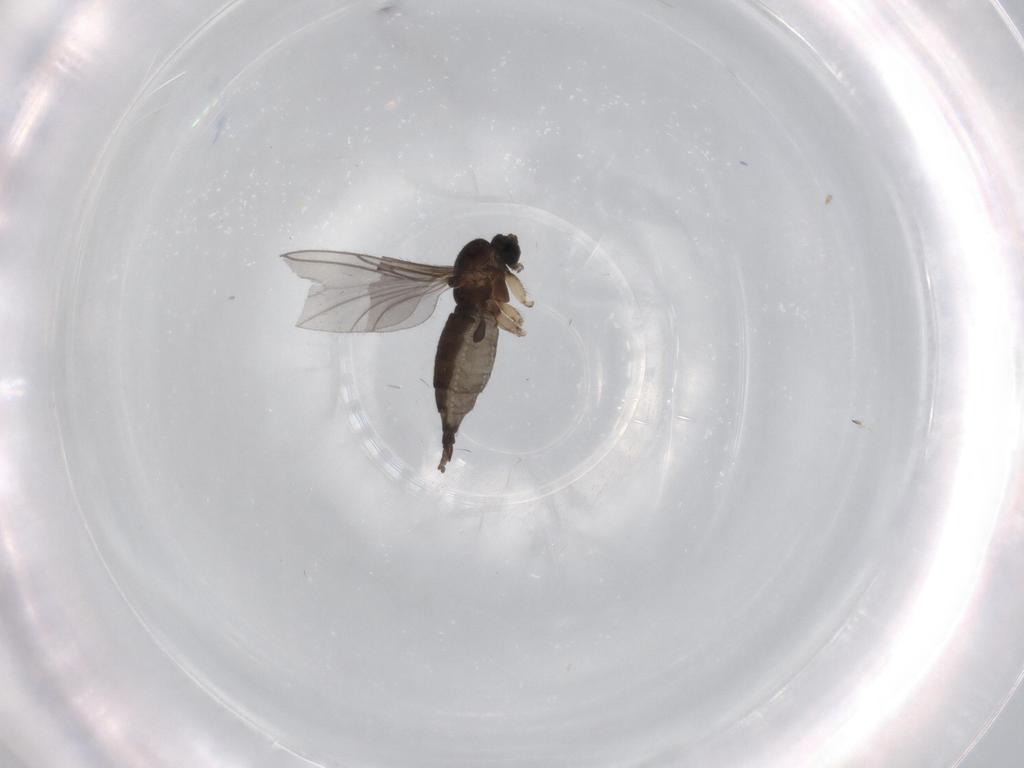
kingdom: Animalia
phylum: Arthropoda
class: Insecta
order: Diptera
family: Sciaridae
